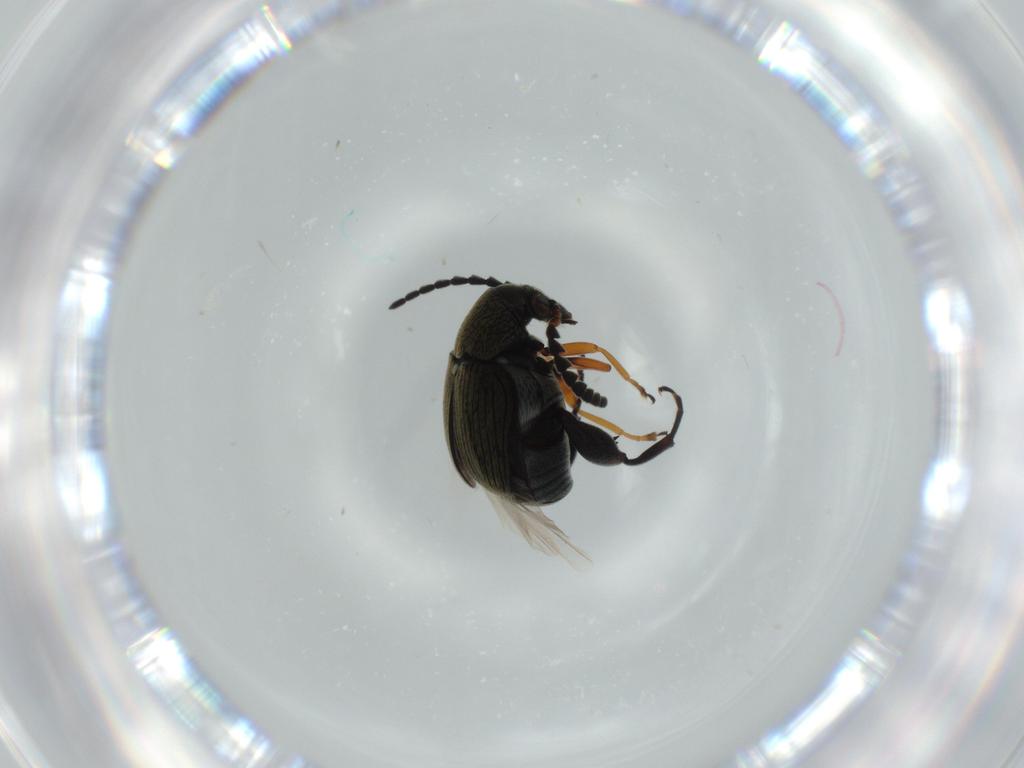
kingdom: Animalia
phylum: Arthropoda
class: Insecta
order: Coleoptera
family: Chrysomelidae
